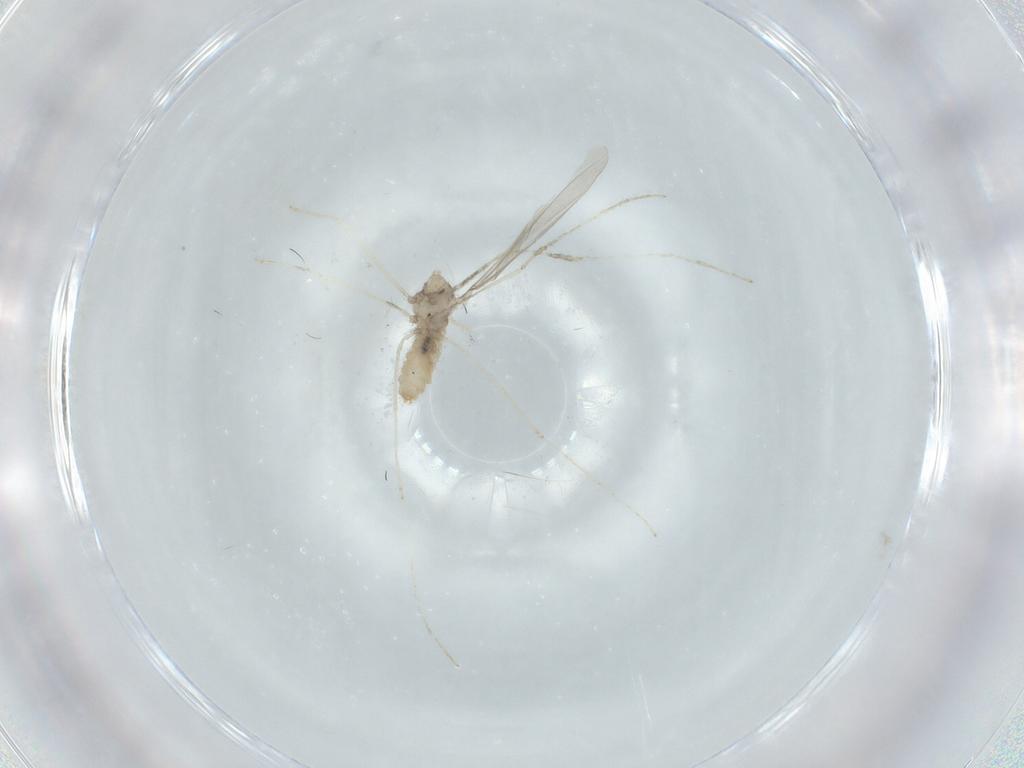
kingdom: Animalia
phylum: Arthropoda
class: Insecta
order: Diptera
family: Cecidomyiidae
